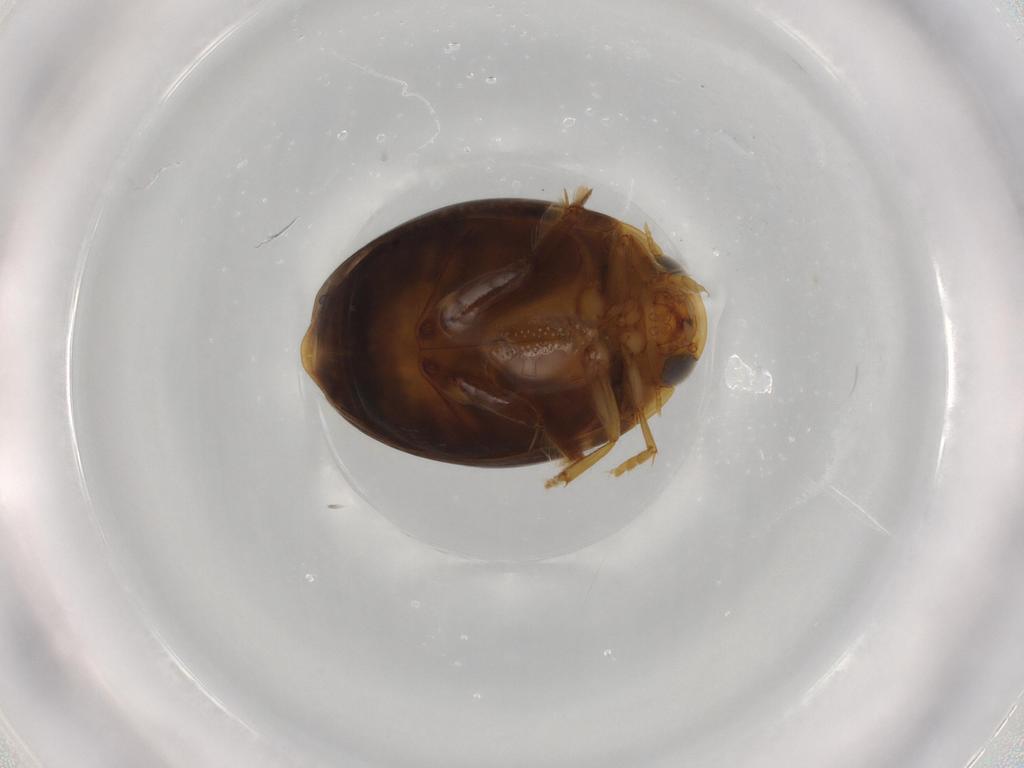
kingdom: Animalia
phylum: Arthropoda
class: Insecta
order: Coleoptera
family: Dytiscidae
